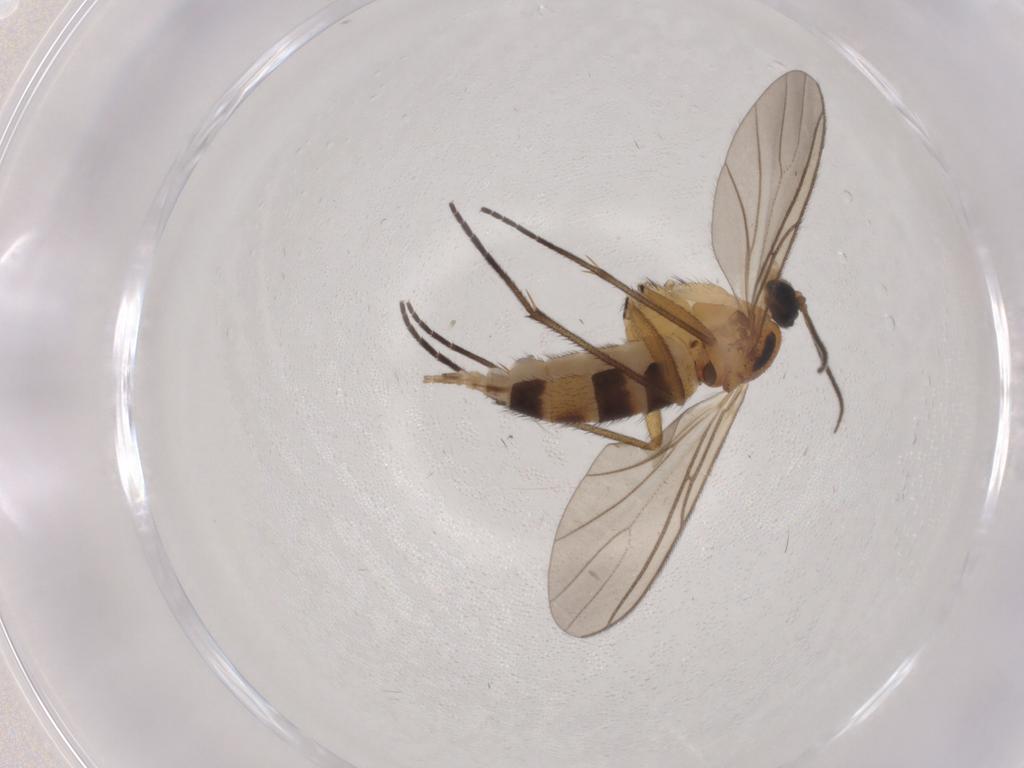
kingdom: Animalia
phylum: Arthropoda
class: Insecta
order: Diptera
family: Sciaridae
